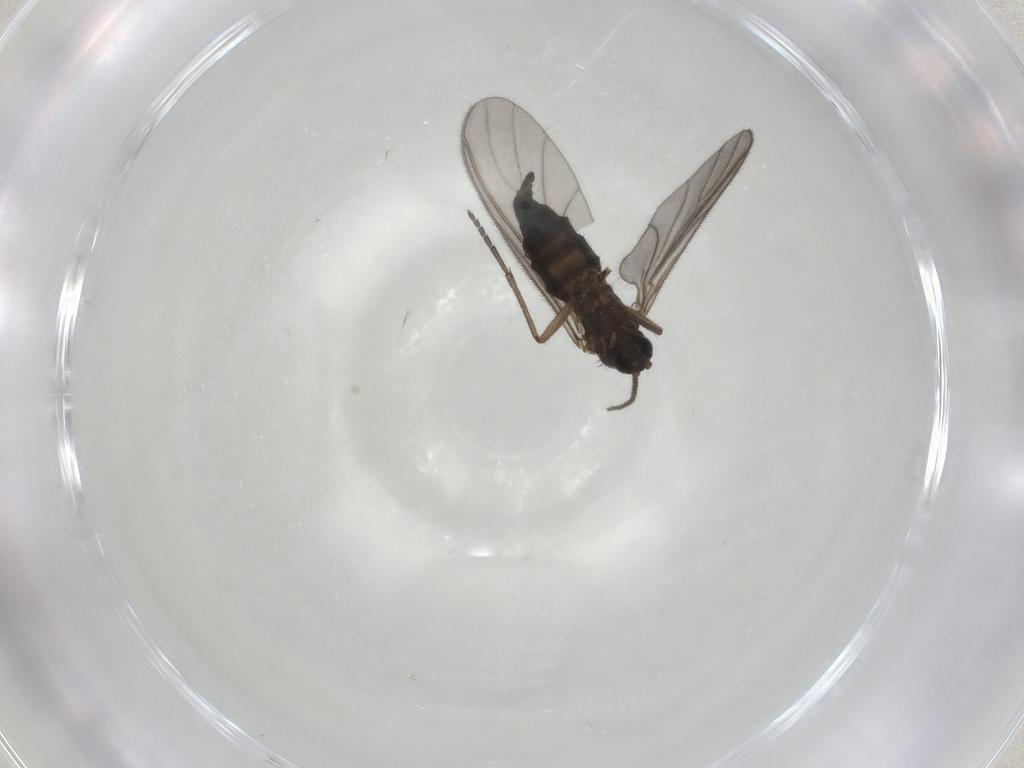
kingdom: Animalia
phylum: Arthropoda
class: Insecta
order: Diptera
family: Sciaridae
